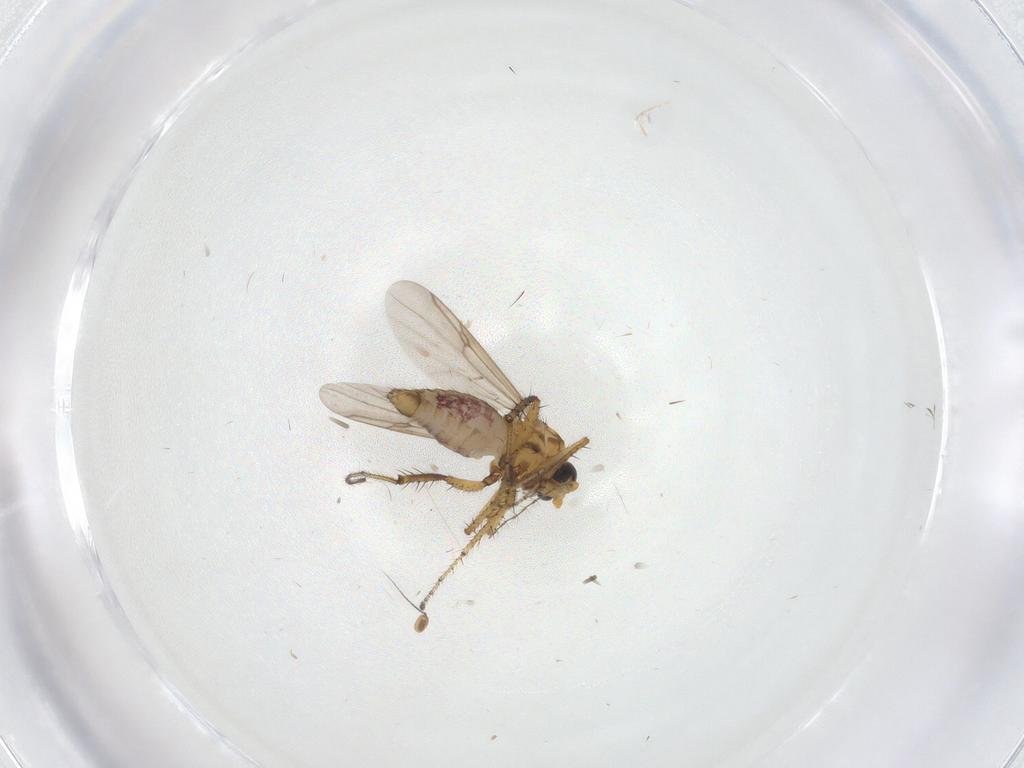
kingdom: Animalia
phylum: Arthropoda
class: Insecta
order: Diptera
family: Dolichopodidae
